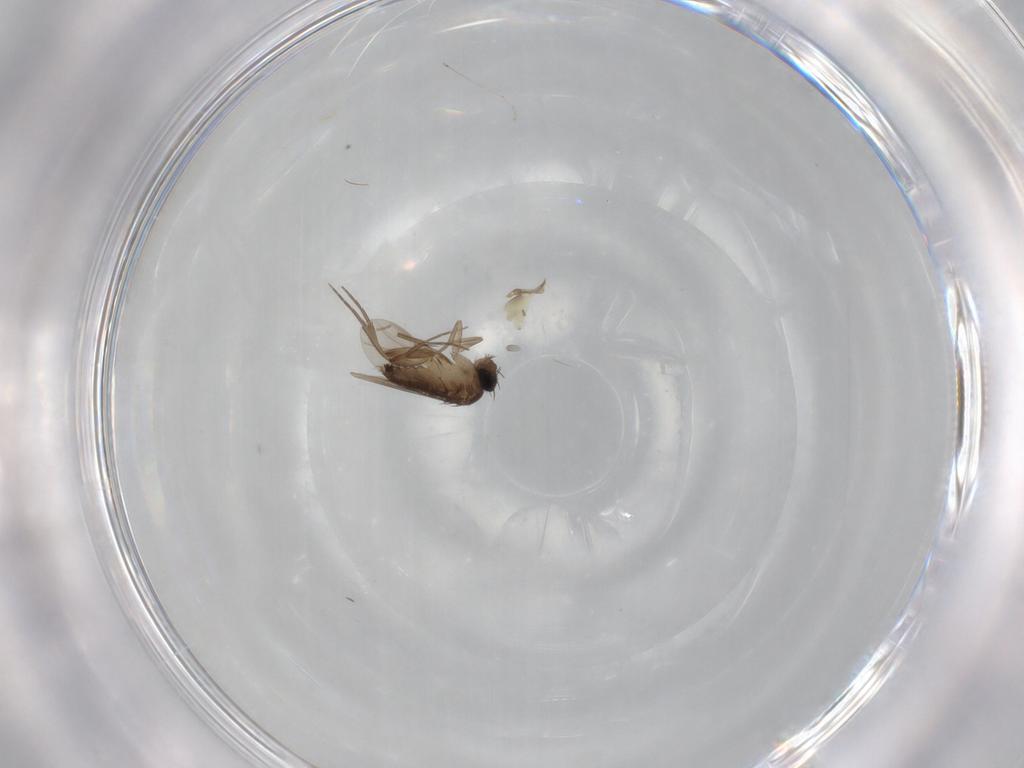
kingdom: Animalia
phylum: Arthropoda
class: Insecta
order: Diptera
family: Phoridae
